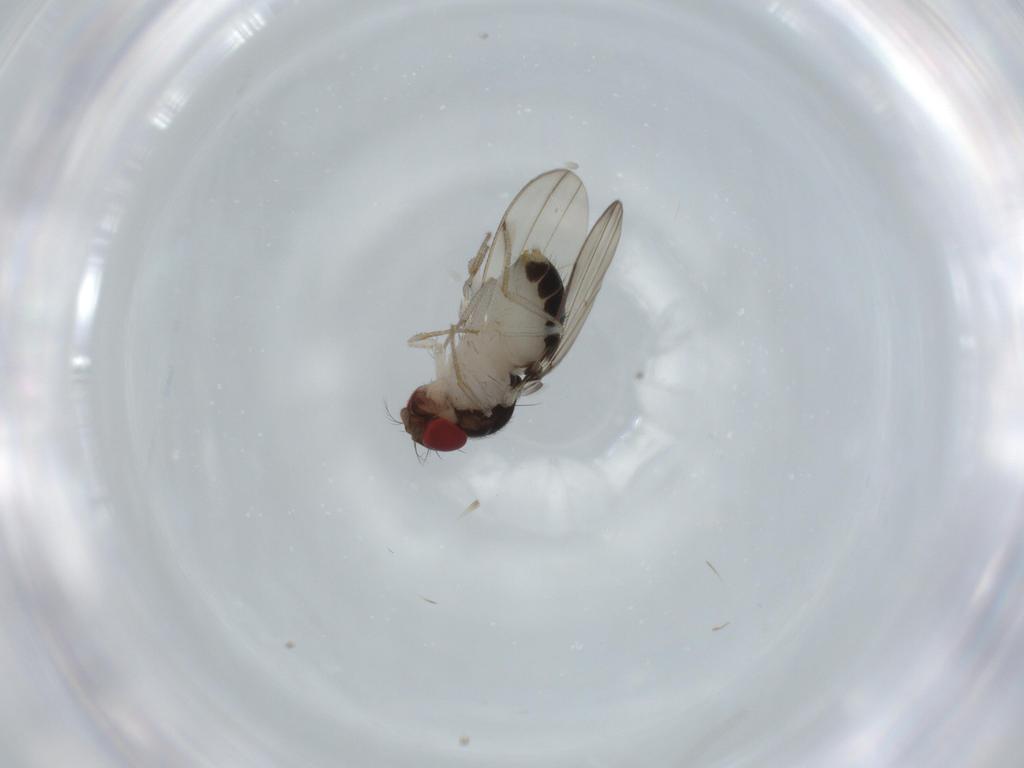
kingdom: Animalia
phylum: Arthropoda
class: Insecta
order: Diptera
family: Drosophilidae
